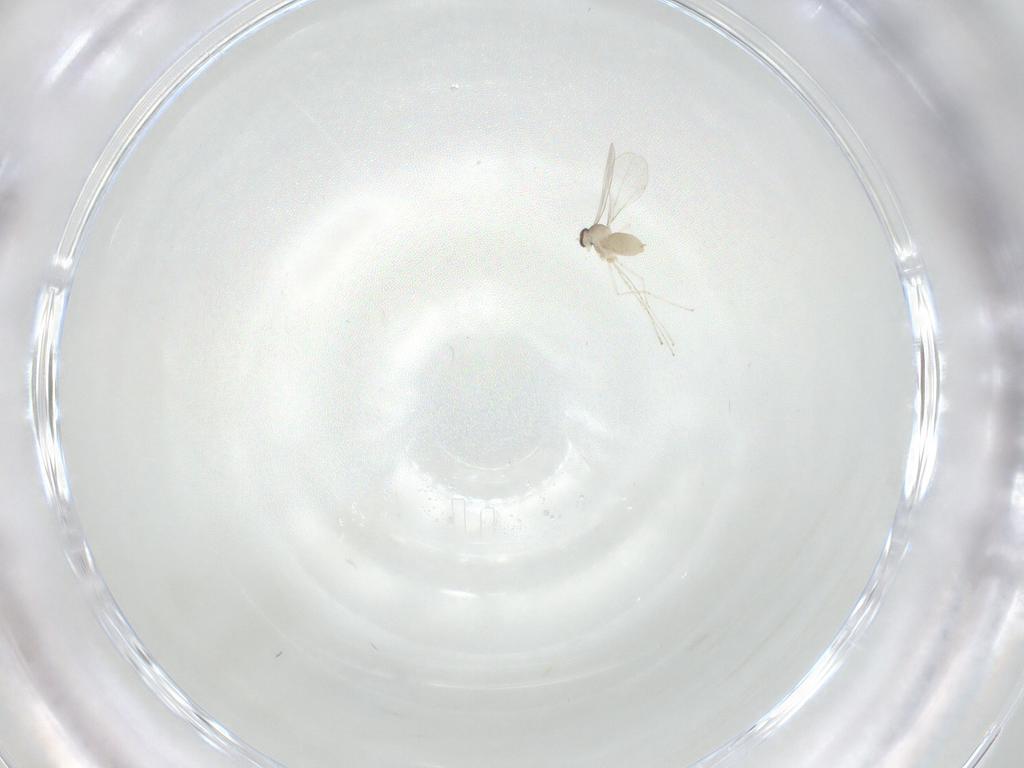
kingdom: Animalia
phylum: Arthropoda
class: Insecta
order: Diptera
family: Cecidomyiidae
